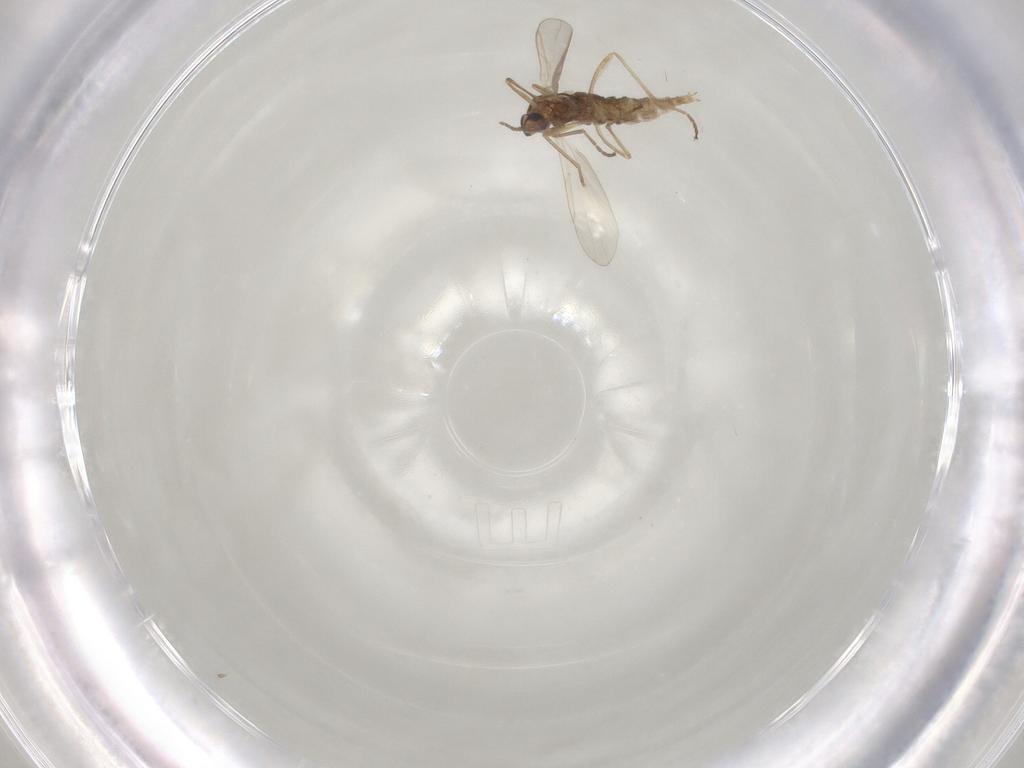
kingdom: Animalia
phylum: Arthropoda
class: Insecta
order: Diptera
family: Cecidomyiidae
